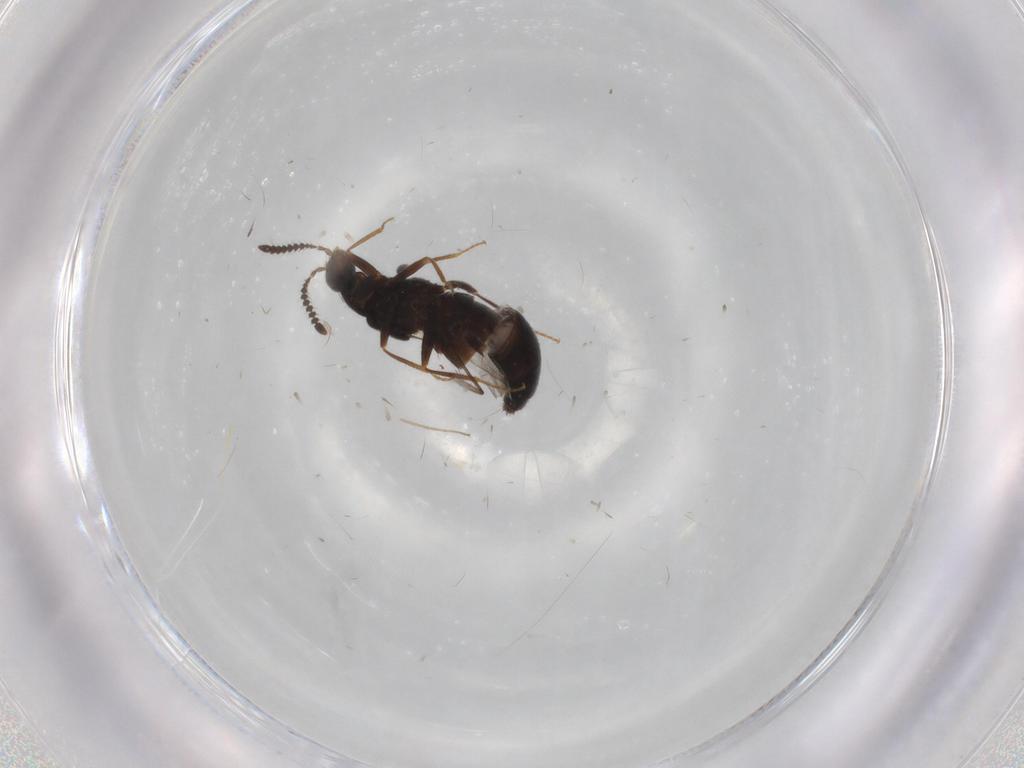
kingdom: Animalia
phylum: Arthropoda
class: Insecta
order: Coleoptera
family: Staphylinidae
